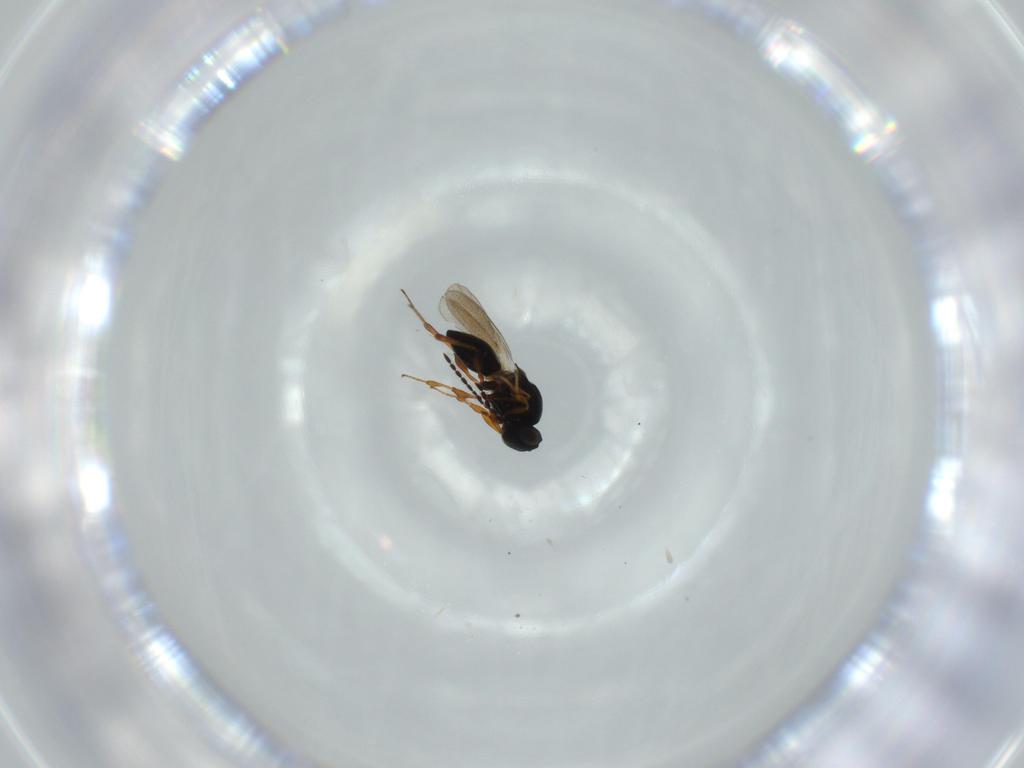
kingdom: Animalia
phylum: Arthropoda
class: Insecta
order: Hymenoptera
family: Platygastridae
